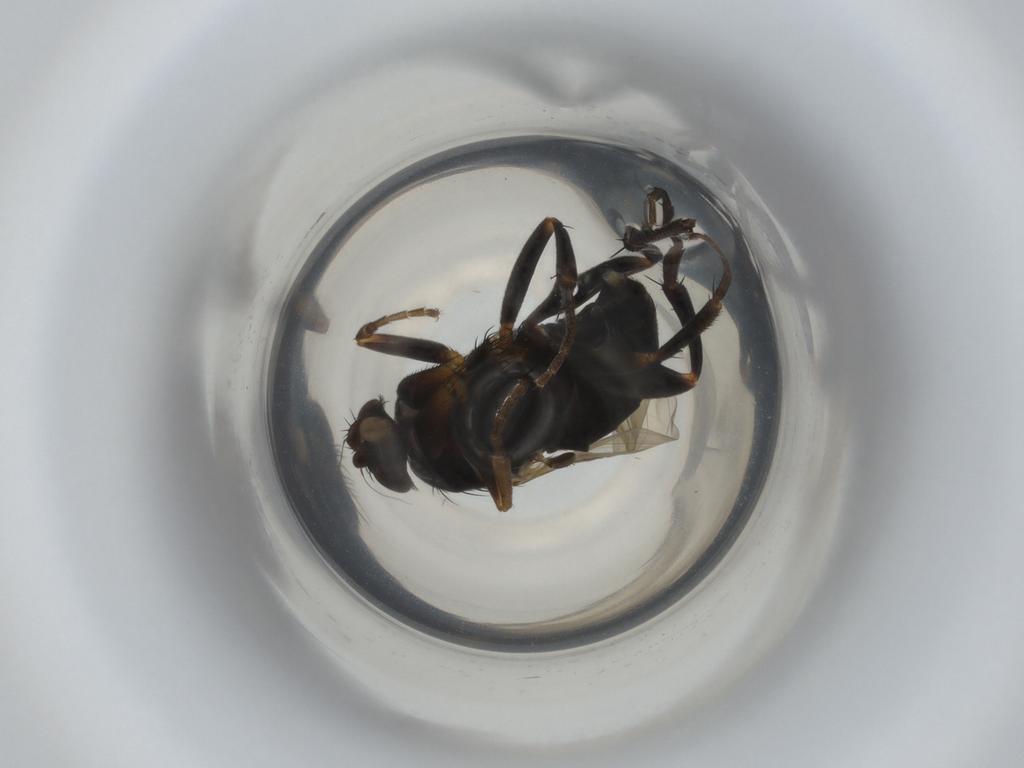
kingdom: Animalia
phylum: Arthropoda
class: Insecta
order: Diptera
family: Phoridae
